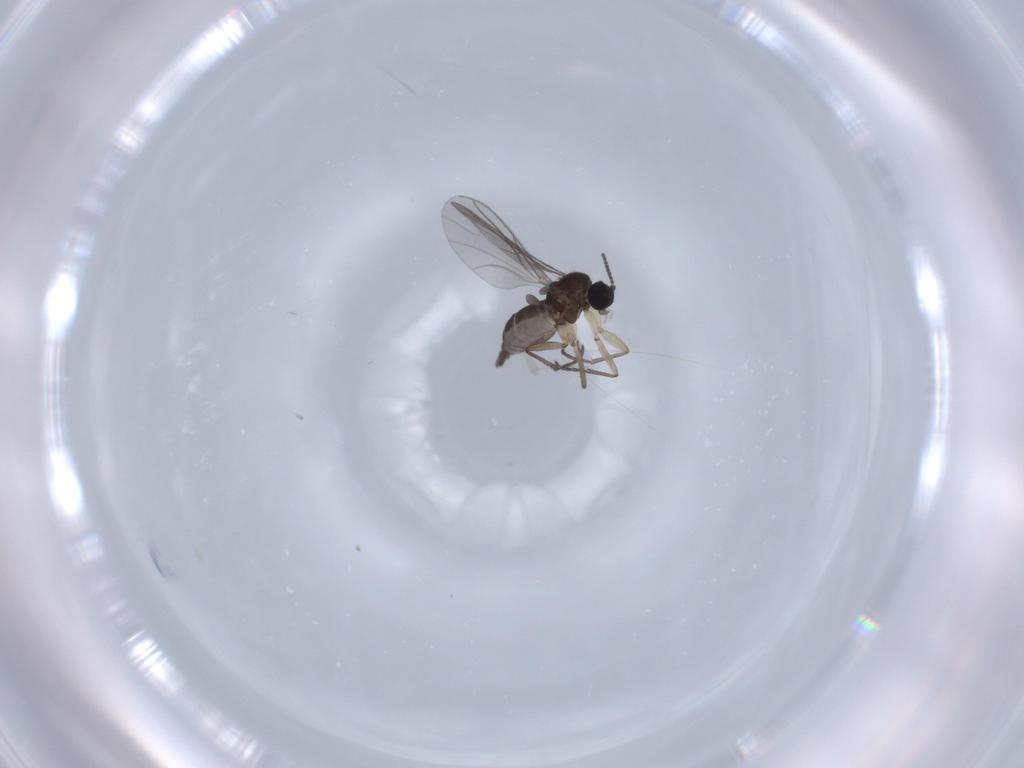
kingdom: Animalia
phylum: Arthropoda
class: Insecta
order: Diptera
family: Sciaridae
